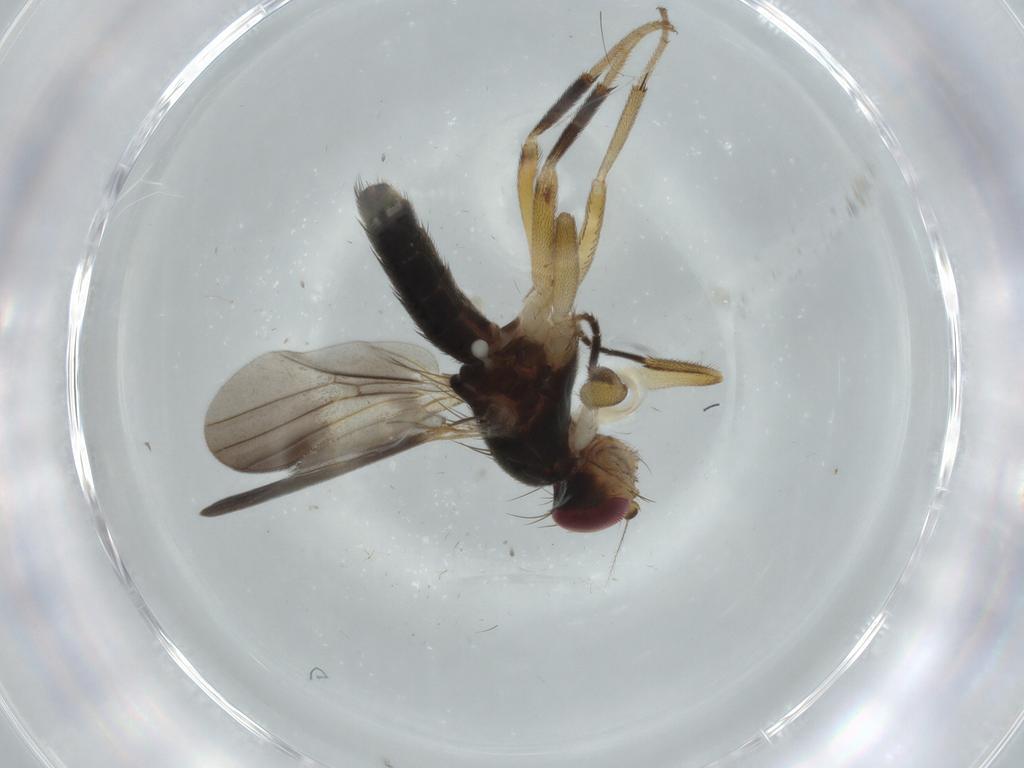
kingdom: Animalia
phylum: Arthropoda
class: Insecta
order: Diptera
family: Clusiidae
